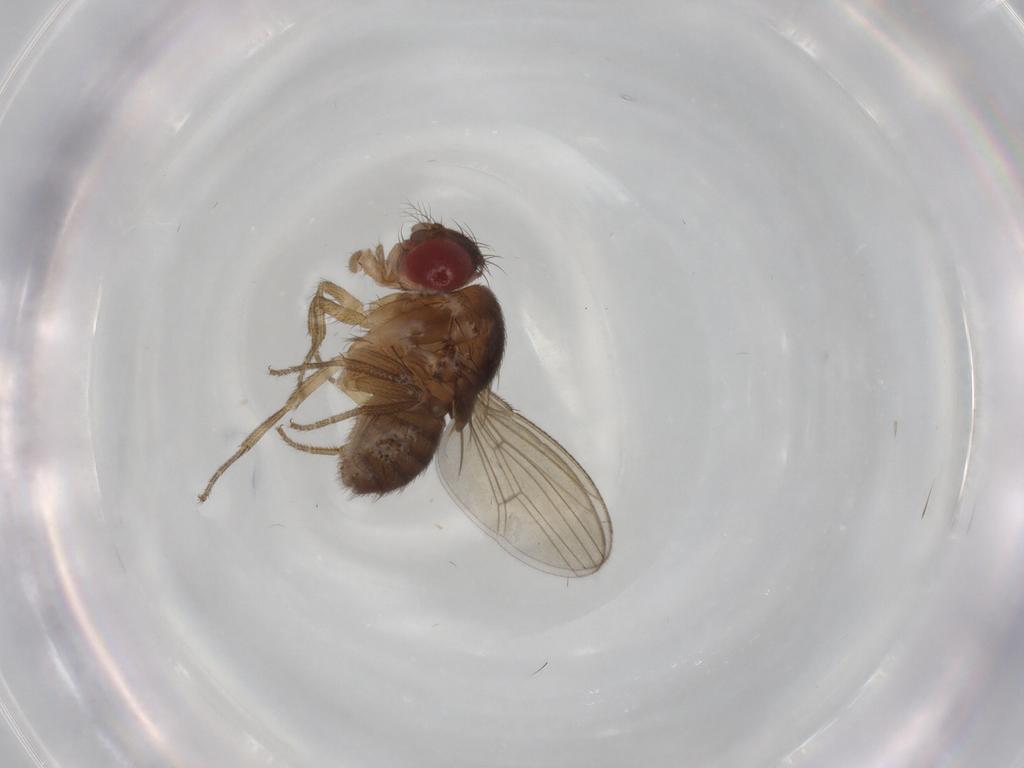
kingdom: Animalia
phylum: Arthropoda
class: Insecta
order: Diptera
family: Drosophilidae
